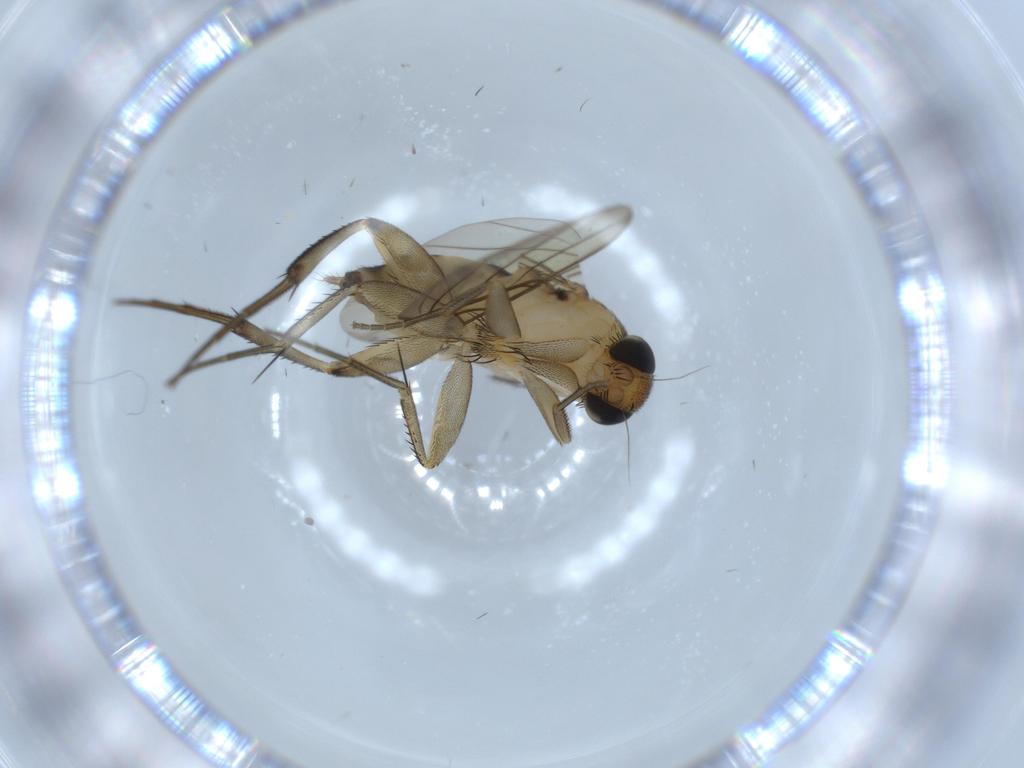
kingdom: Animalia
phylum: Arthropoda
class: Insecta
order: Diptera
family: Phoridae
